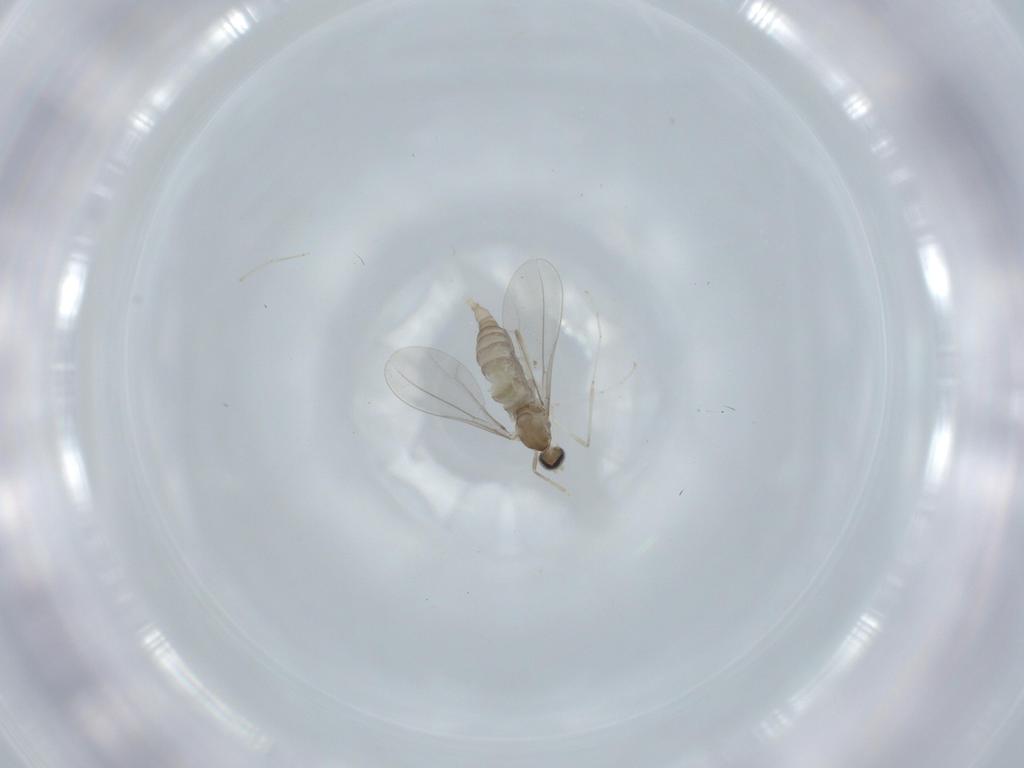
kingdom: Animalia
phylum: Arthropoda
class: Insecta
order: Diptera
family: Cecidomyiidae
